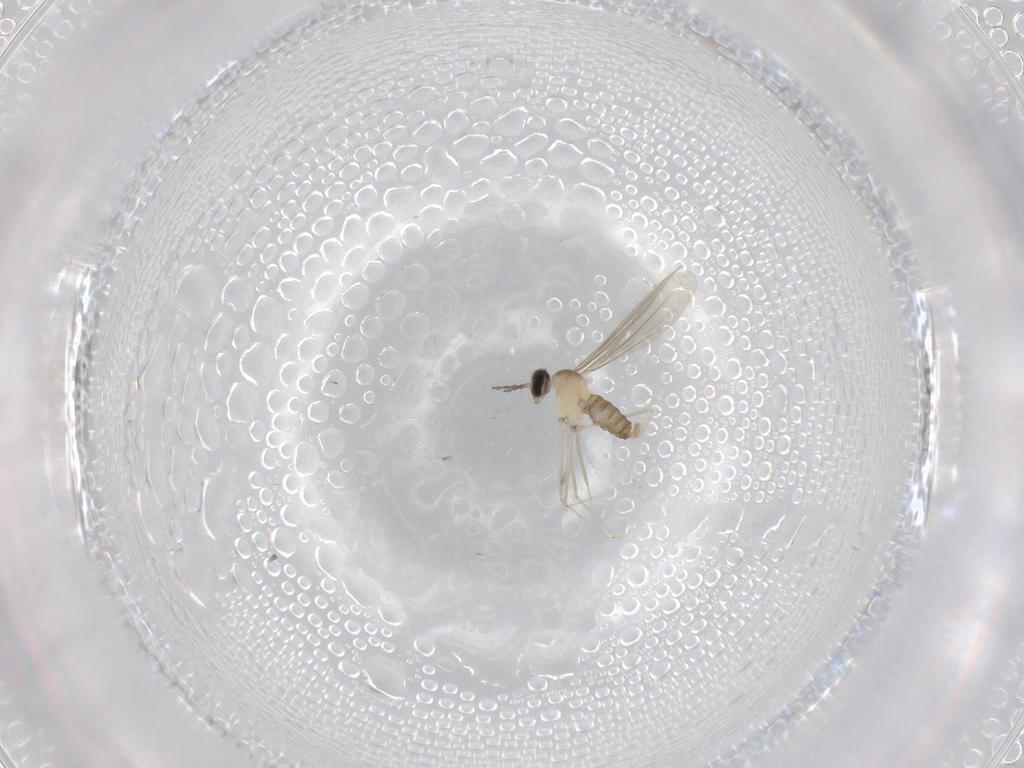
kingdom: Animalia
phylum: Arthropoda
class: Insecta
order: Diptera
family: Cecidomyiidae
